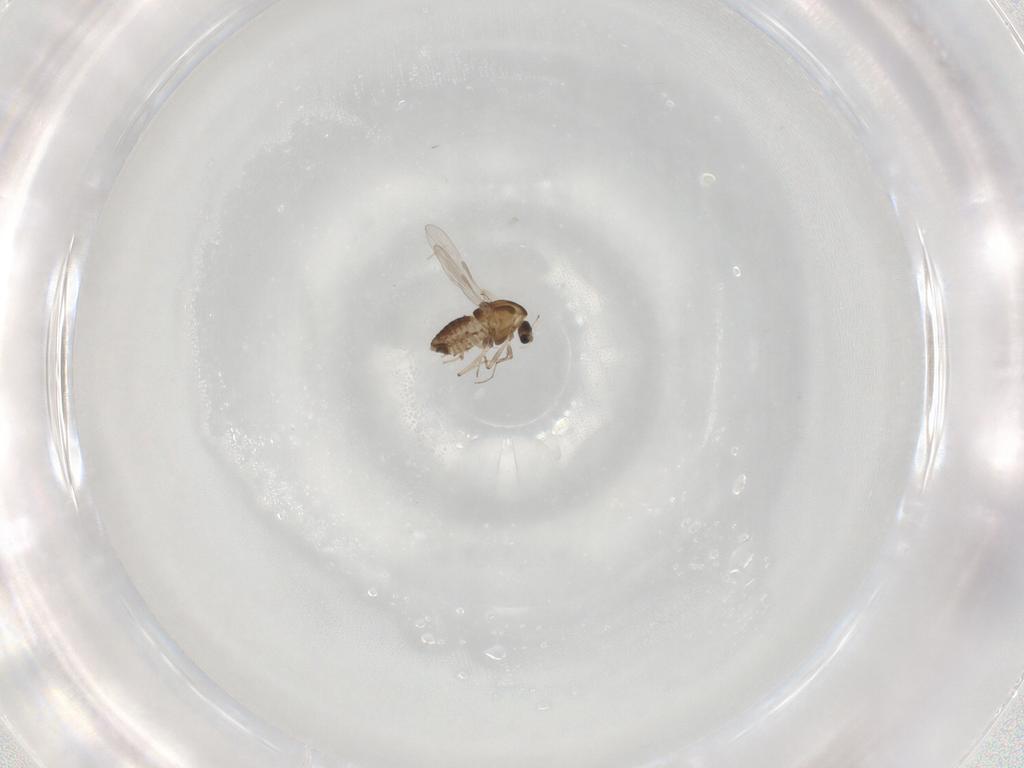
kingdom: Animalia
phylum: Arthropoda
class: Insecta
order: Diptera
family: Chironomidae
